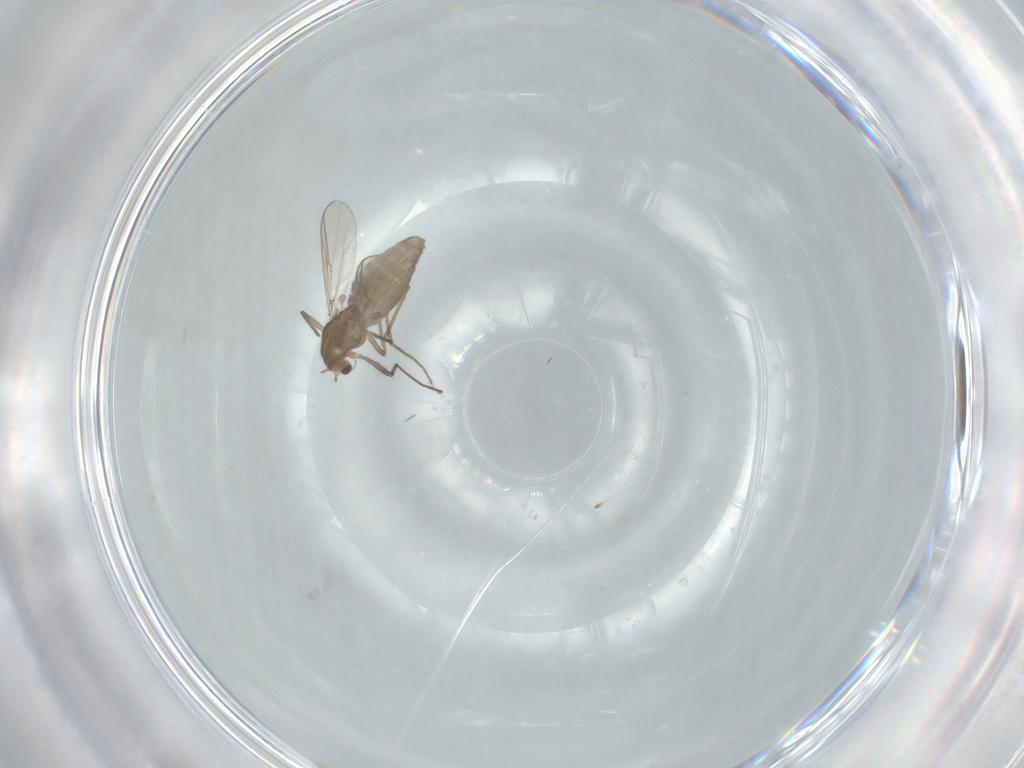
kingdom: Animalia
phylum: Arthropoda
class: Insecta
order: Diptera
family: Chironomidae
